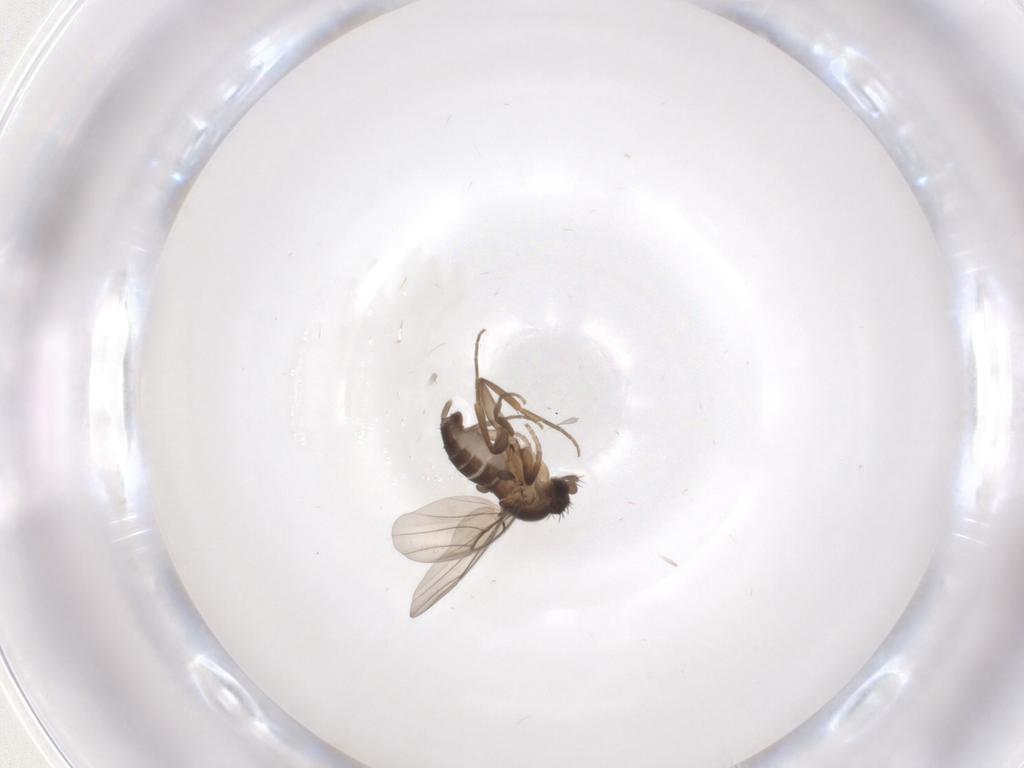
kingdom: Animalia
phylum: Arthropoda
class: Insecta
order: Diptera
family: Phoridae
